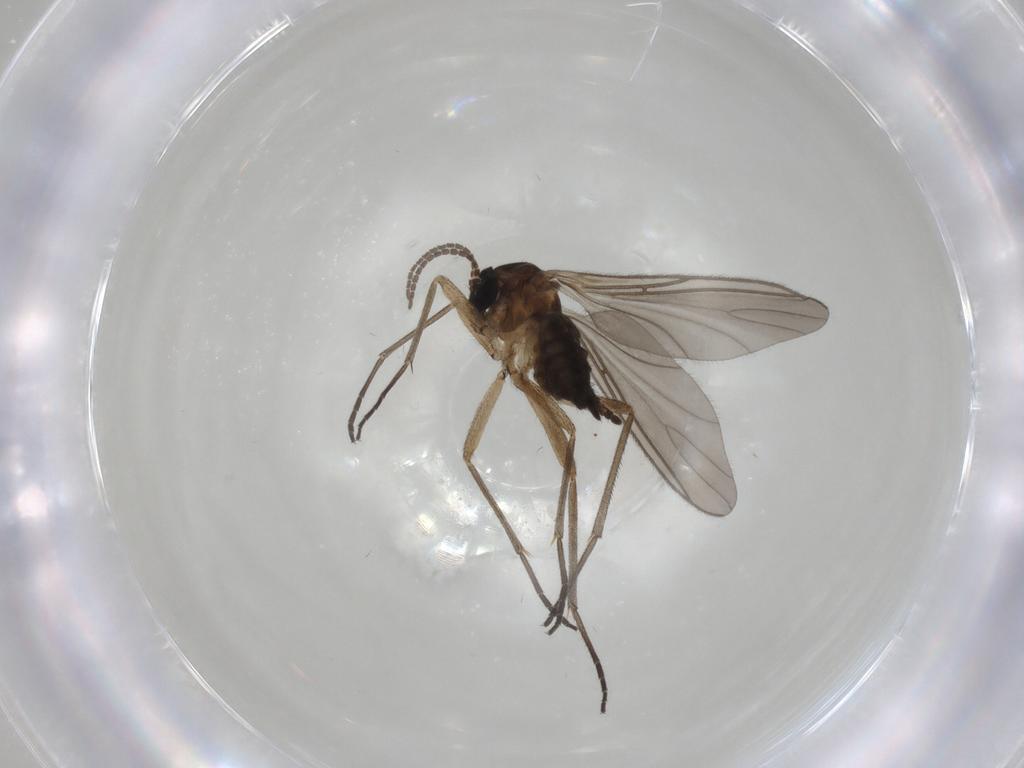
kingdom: Animalia
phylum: Arthropoda
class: Insecta
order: Diptera
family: Sciaridae
